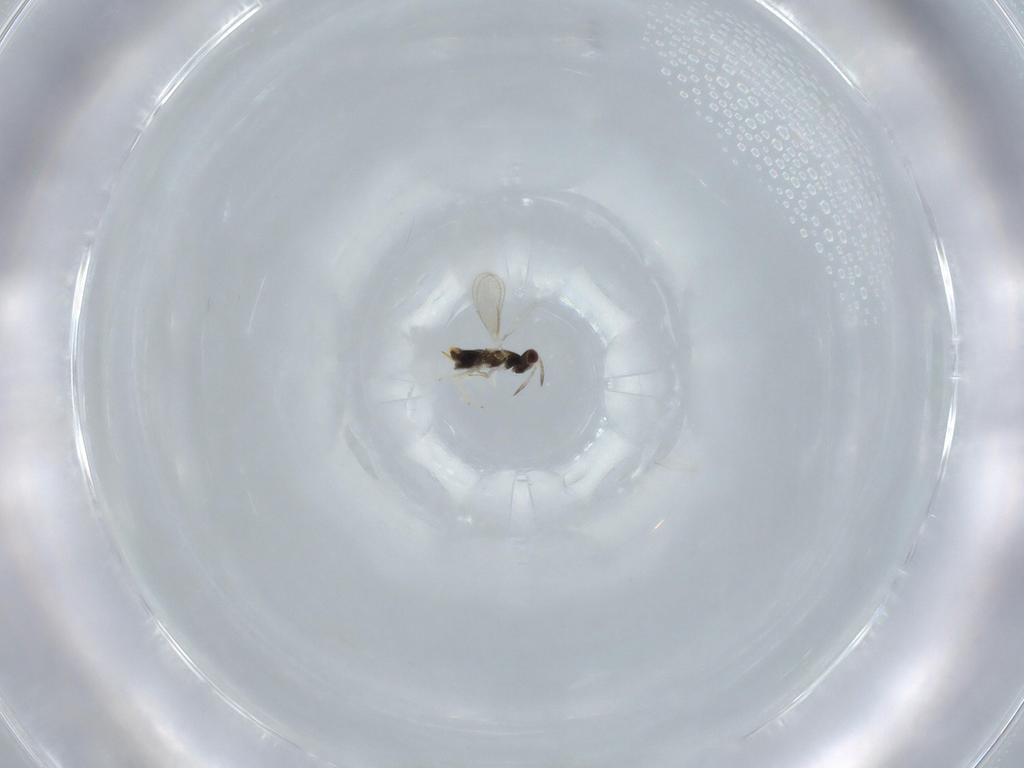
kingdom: Animalia
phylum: Arthropoda
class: Insecta
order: Hymenoptera
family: Aphelinidae
